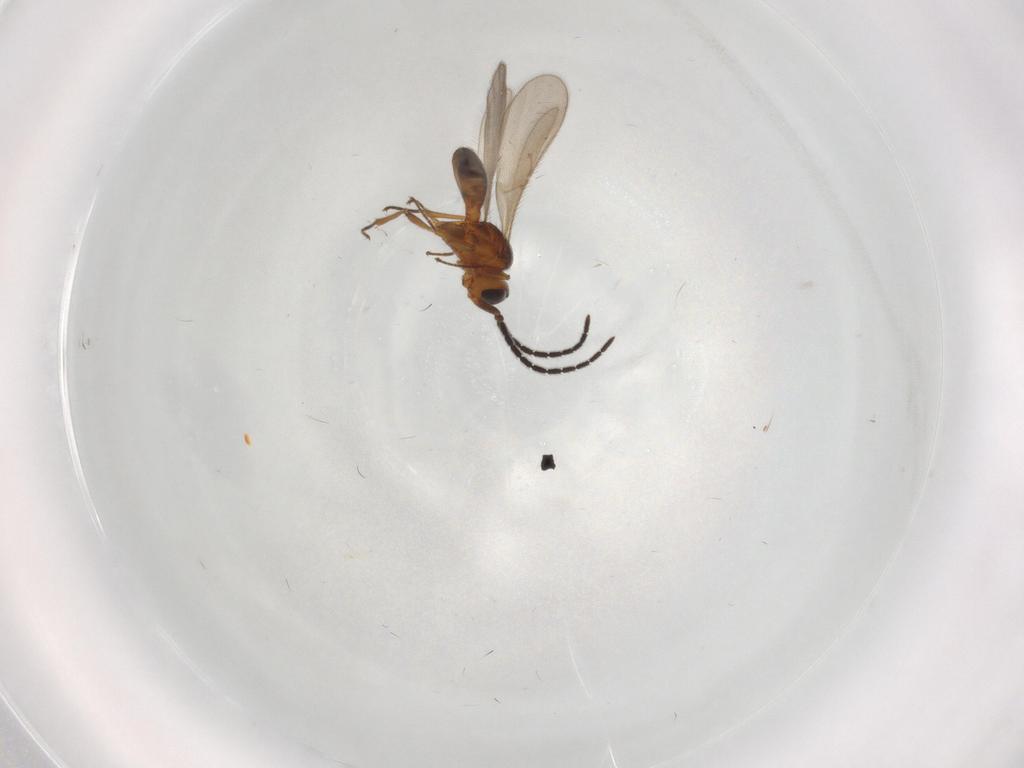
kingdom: Animalia
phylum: Arthropoda
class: Insecta
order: Hymenoptera
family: Scelionidae
